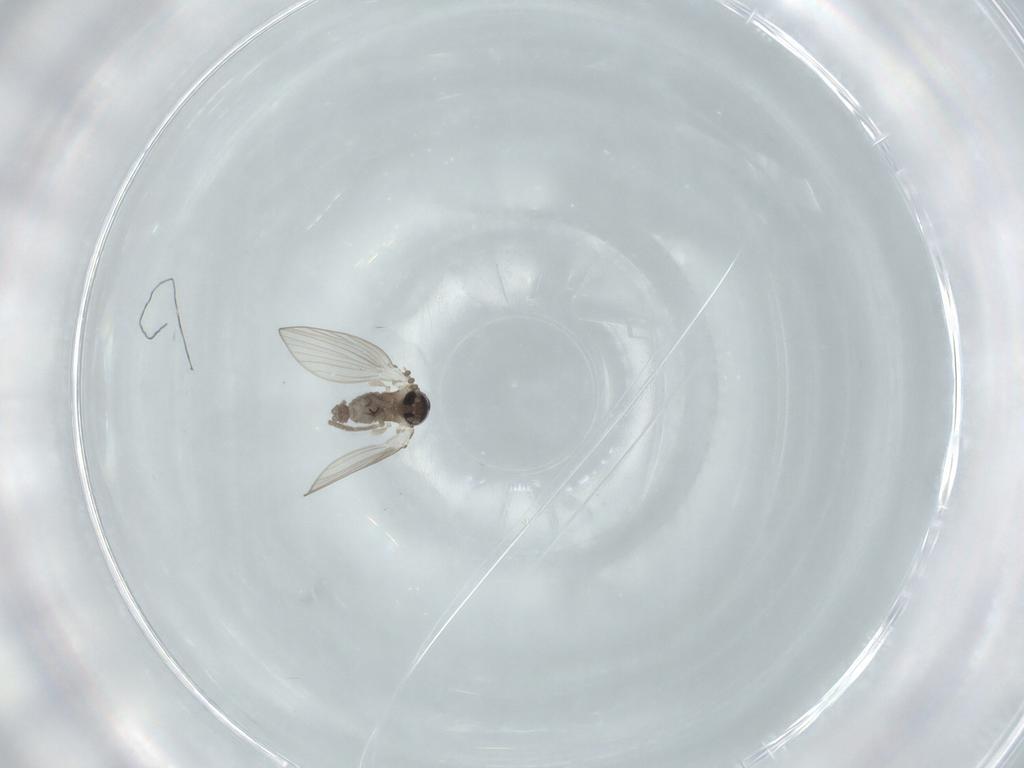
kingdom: Animalia
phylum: Arthropoda
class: Insecta
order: Diptera
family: Psychodidae
